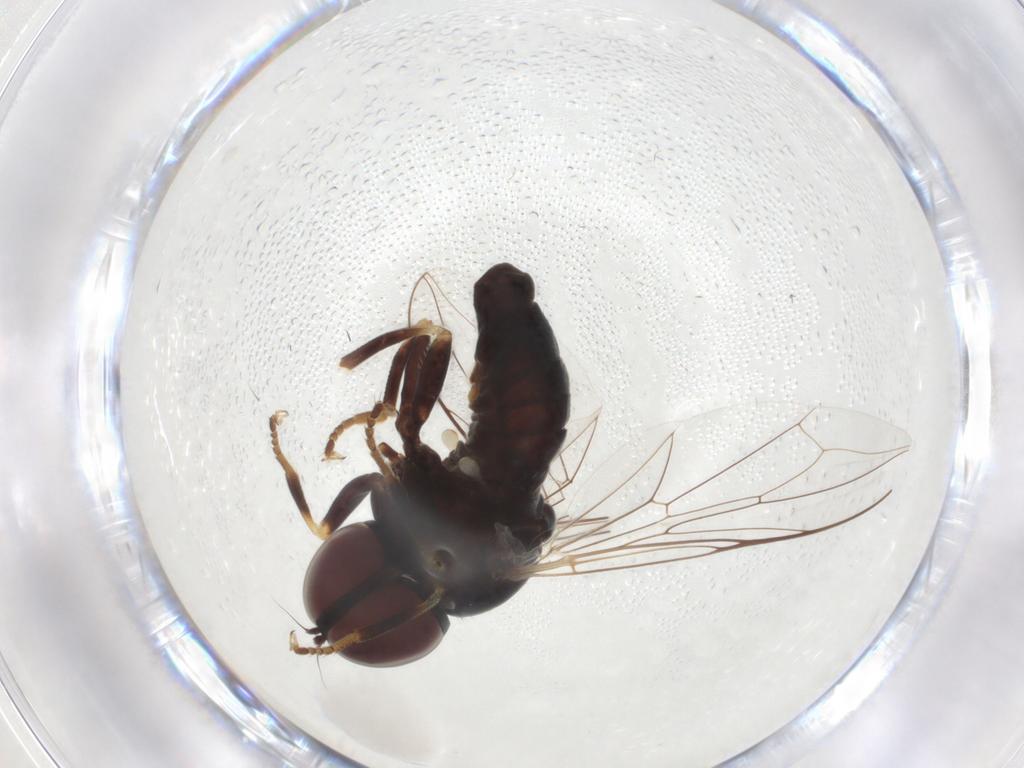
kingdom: Animalia
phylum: Arthropoda
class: Insecta
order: Diptera
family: Pipunculidae
